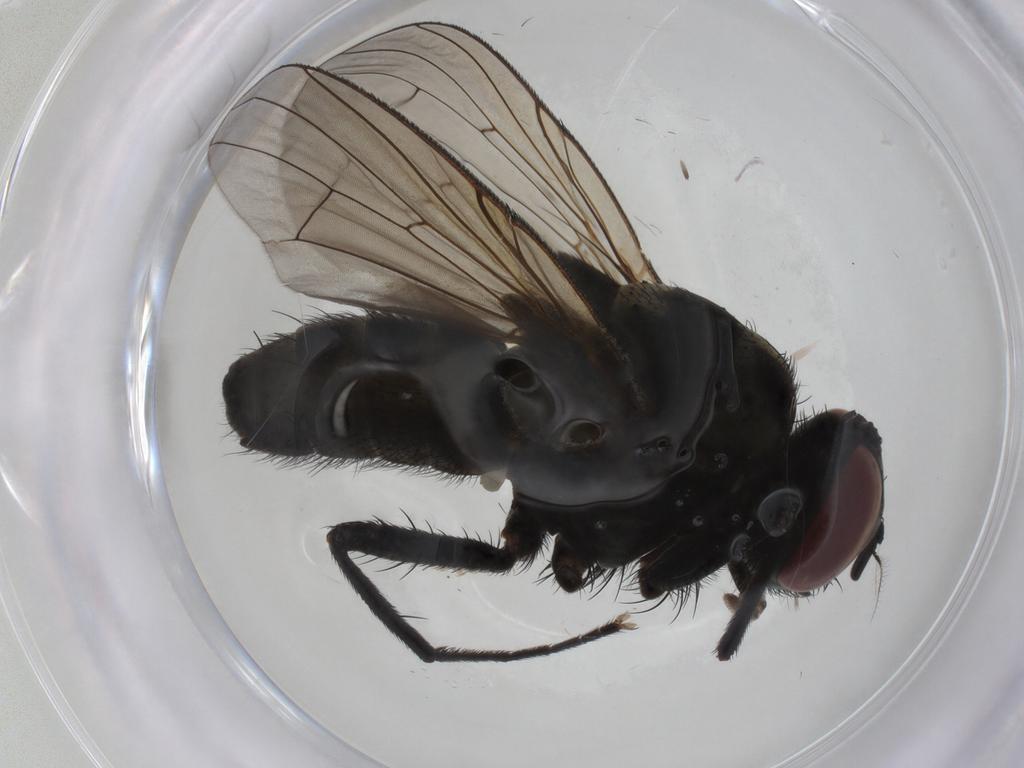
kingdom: Animalia
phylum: Arthropoda
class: Insecta
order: Diptera
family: Muscidae
